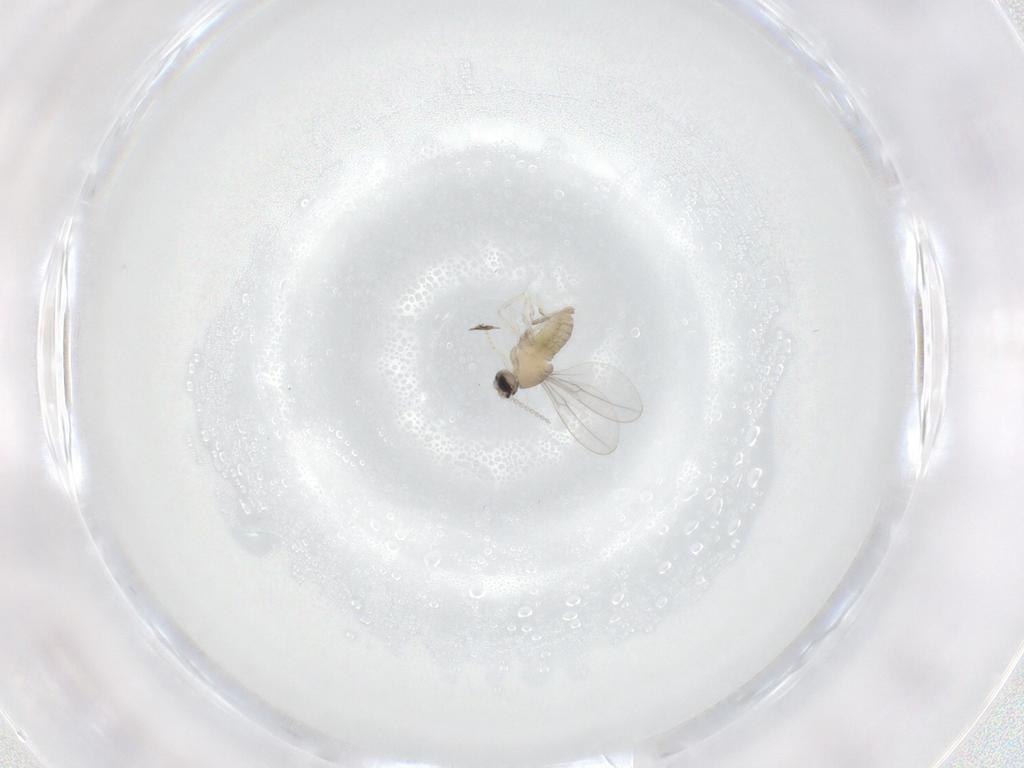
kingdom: Animalia
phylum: Arthropoda
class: Insecta
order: Diptera
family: Cecidomyiidae
